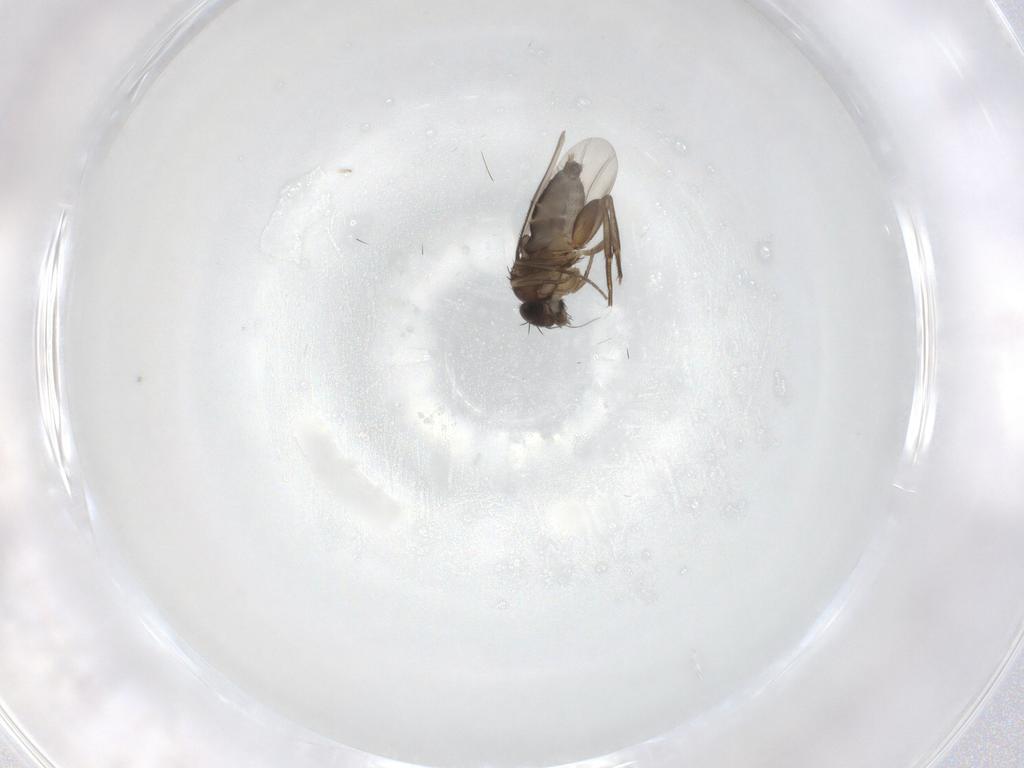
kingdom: Animalia
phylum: Arthropoda
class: Insecta
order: Diptera
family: Phoridae
